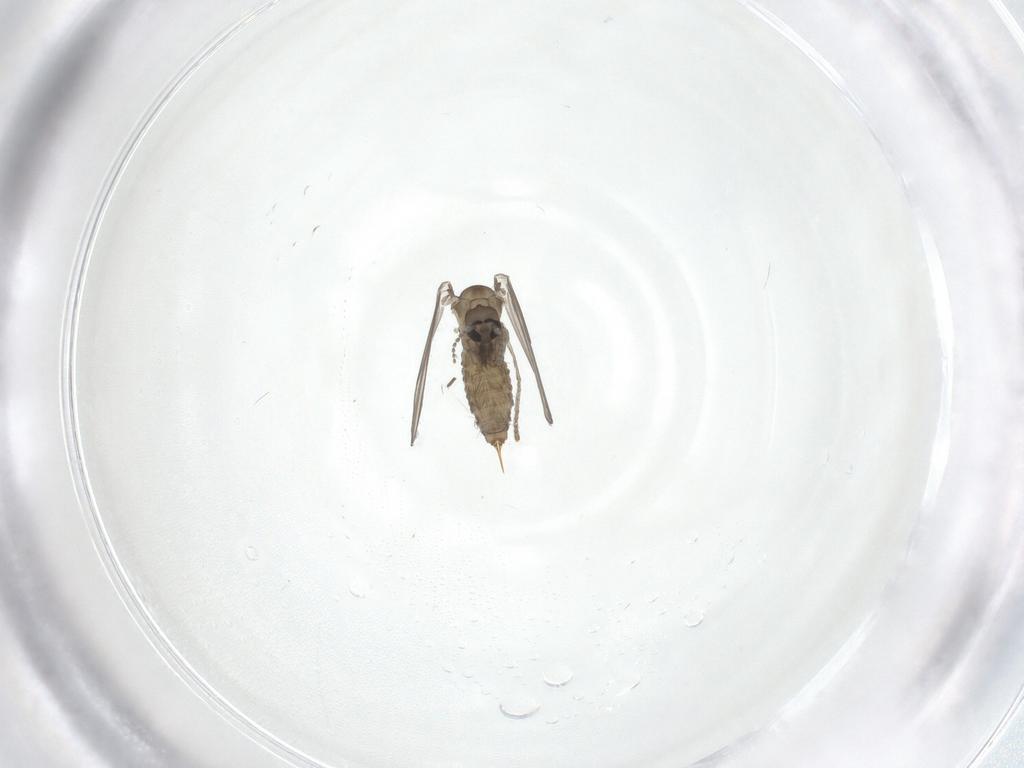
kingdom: Animalia
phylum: Arthropoda
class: Insecta
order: Diptera
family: Psychodidae
